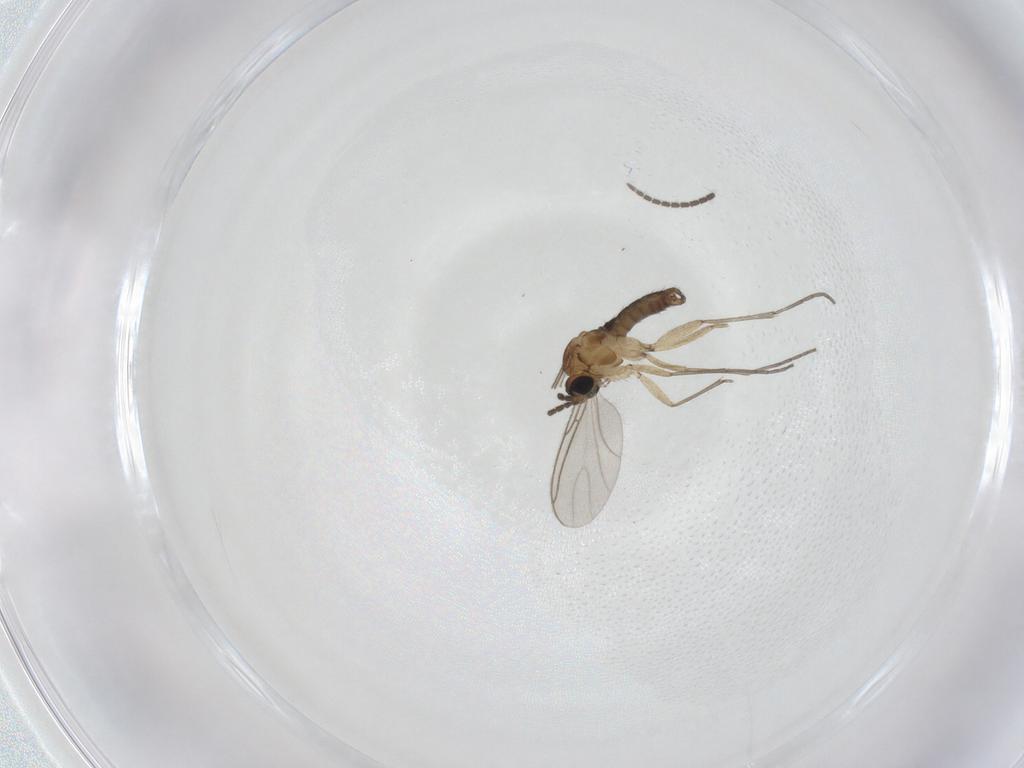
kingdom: Animalia
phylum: Arthropoda
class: Insecta
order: Diptera
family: Sciaridae
